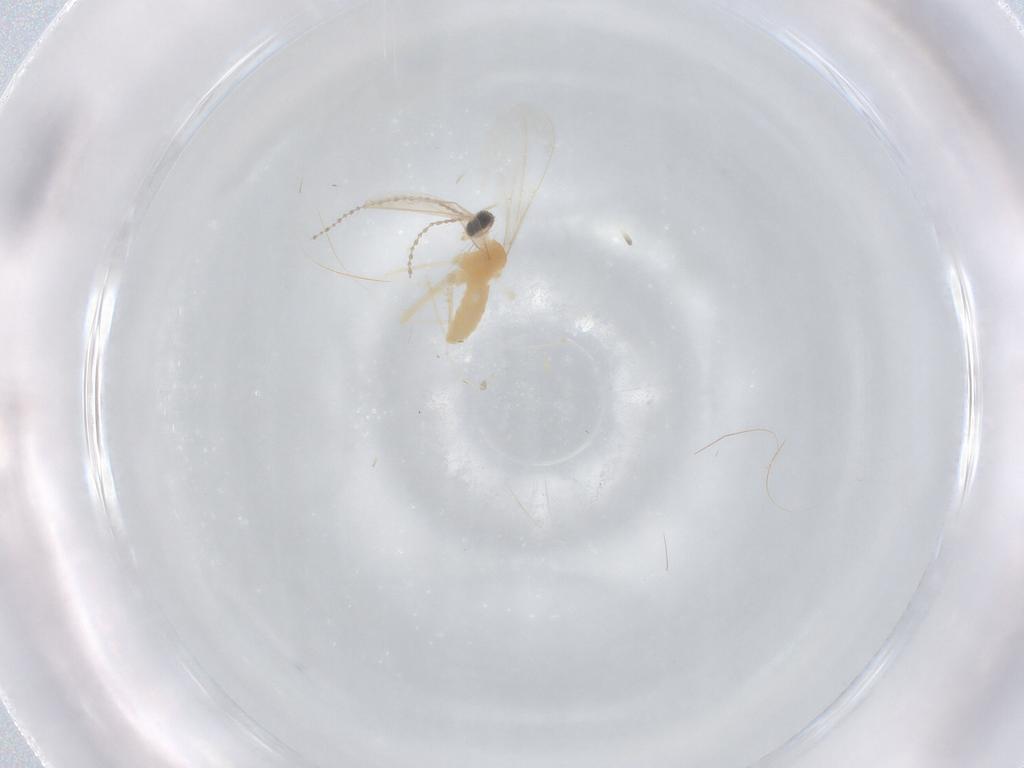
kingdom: Animalia
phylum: Arthropoda
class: Insecta
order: Diptera
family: Cecidomyiidae
